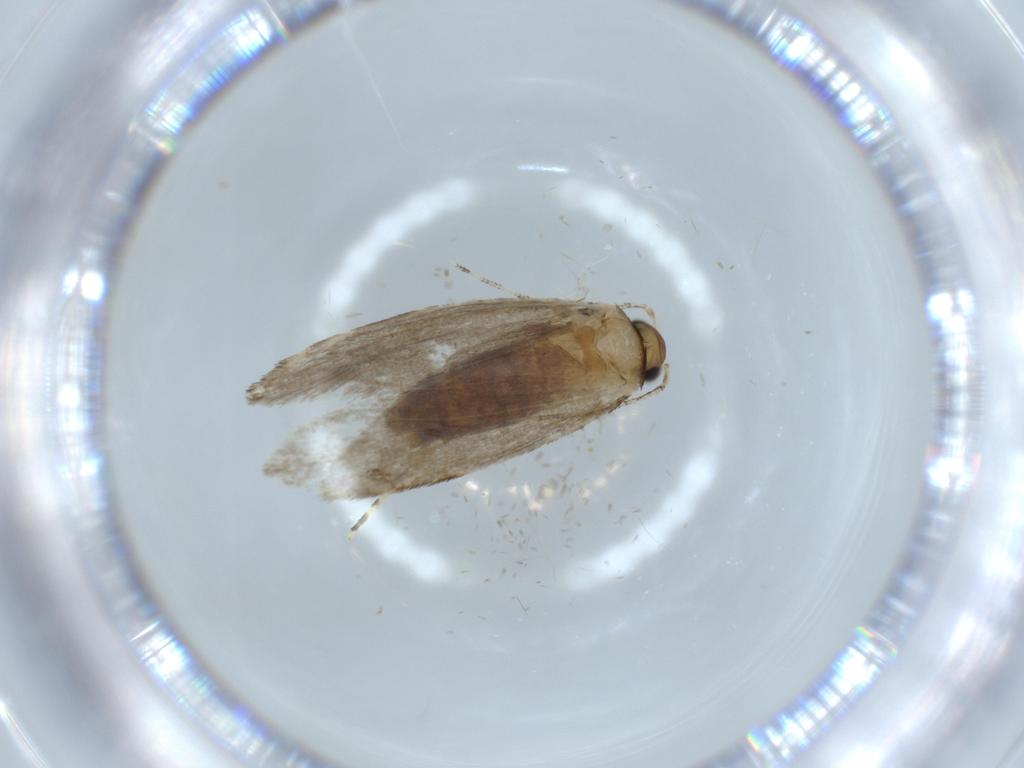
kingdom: Animalia
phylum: Arthropoda
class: Insecta
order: Lepidoptera
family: Tineidae
